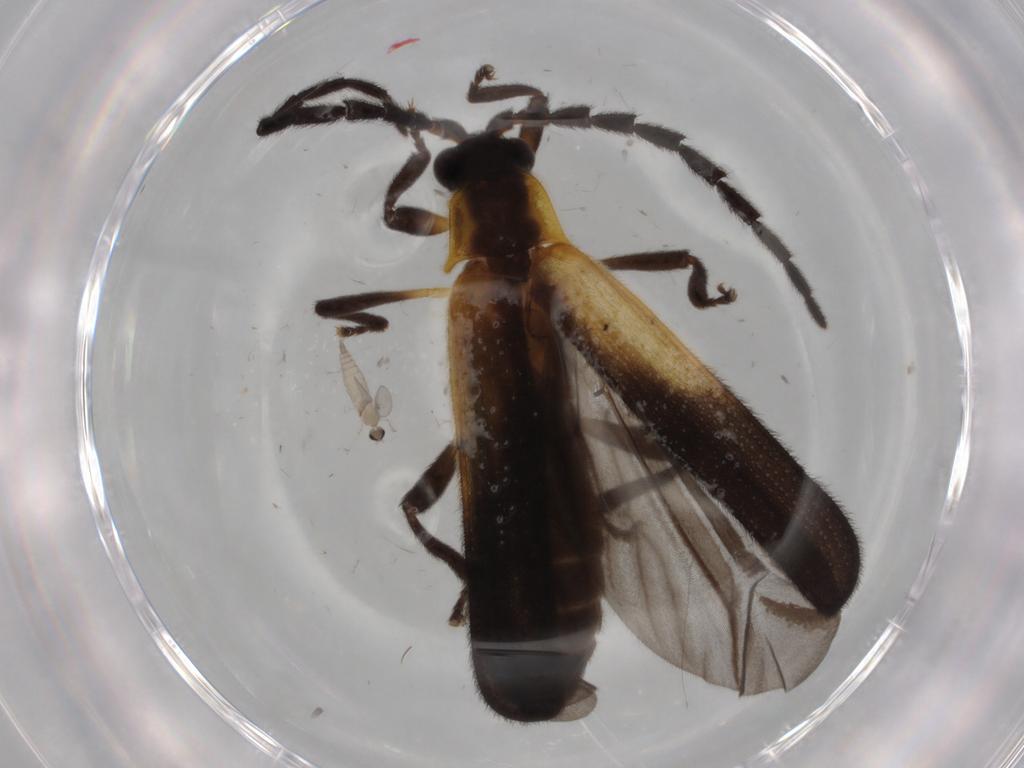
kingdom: Animalia
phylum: Arthropoda
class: Insecta
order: Coleoptera
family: Lycidae
